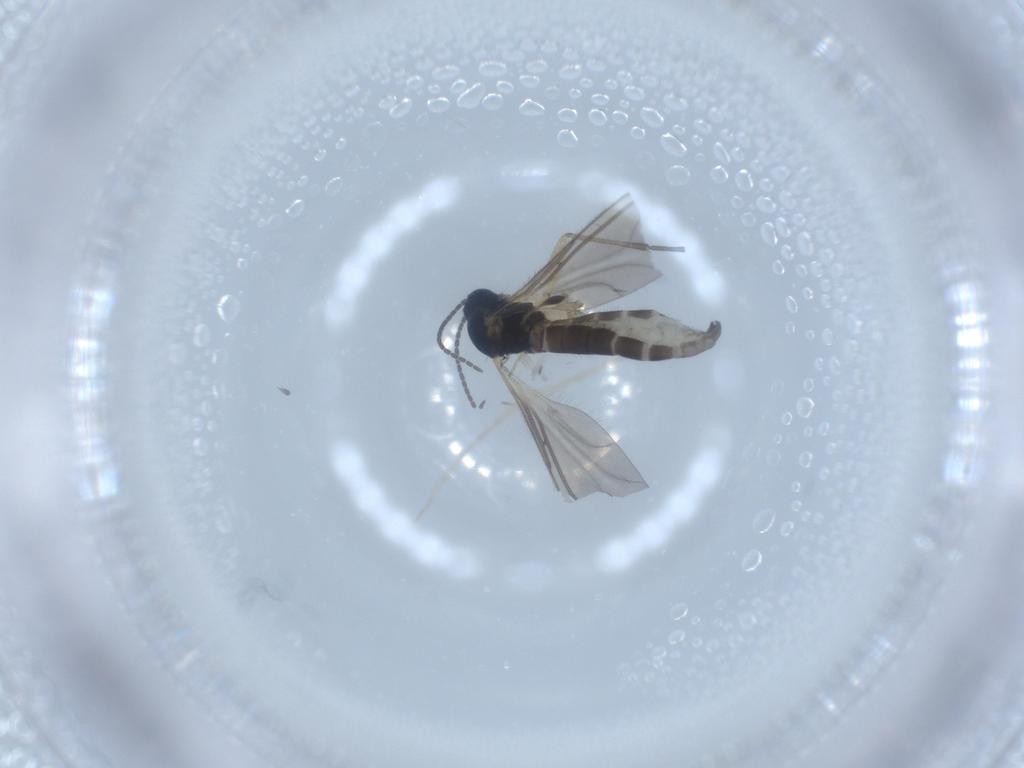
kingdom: Animalia
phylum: Arthropoda
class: Insecta
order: Diptera
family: Sciaridae
